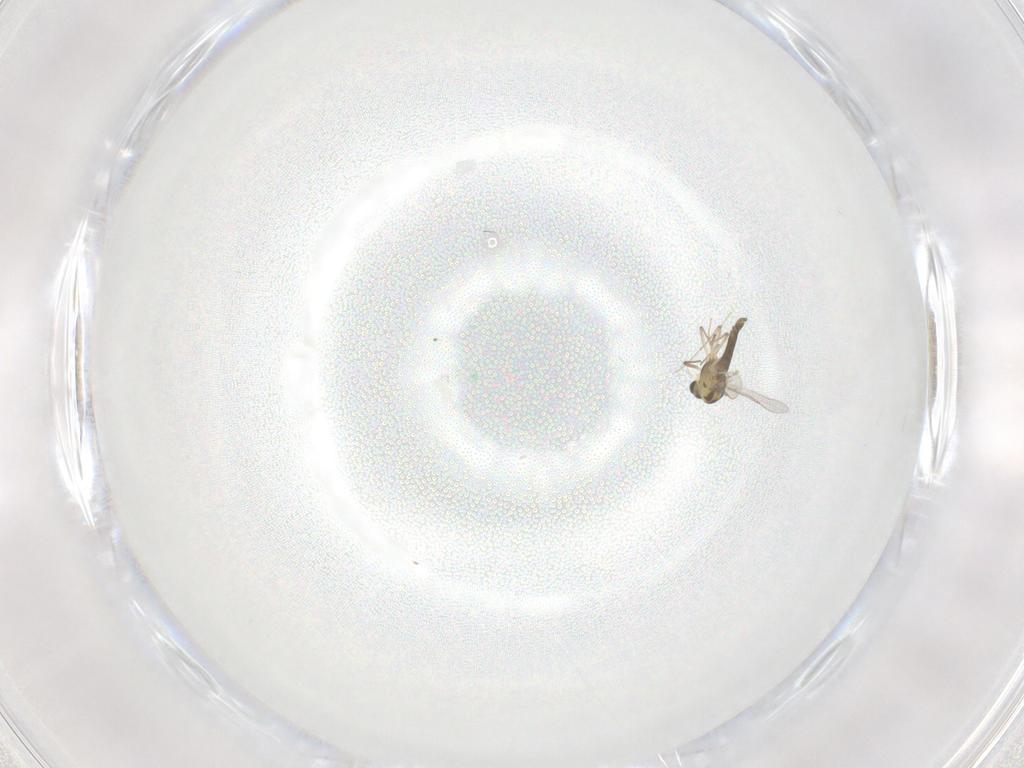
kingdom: Animalia
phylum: Arthropoda
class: Insecta
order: Diptera
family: Chironomidae
